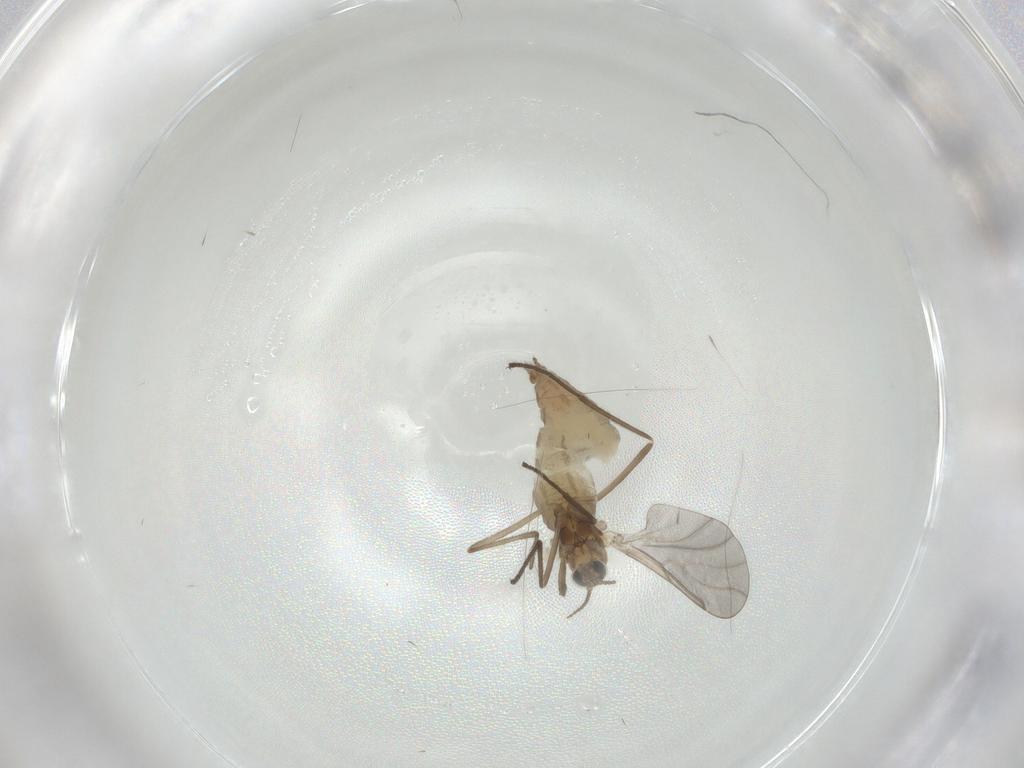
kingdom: Animalia
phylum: Arthropoda
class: Insecta
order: Diptera
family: Cecidomyiidae
